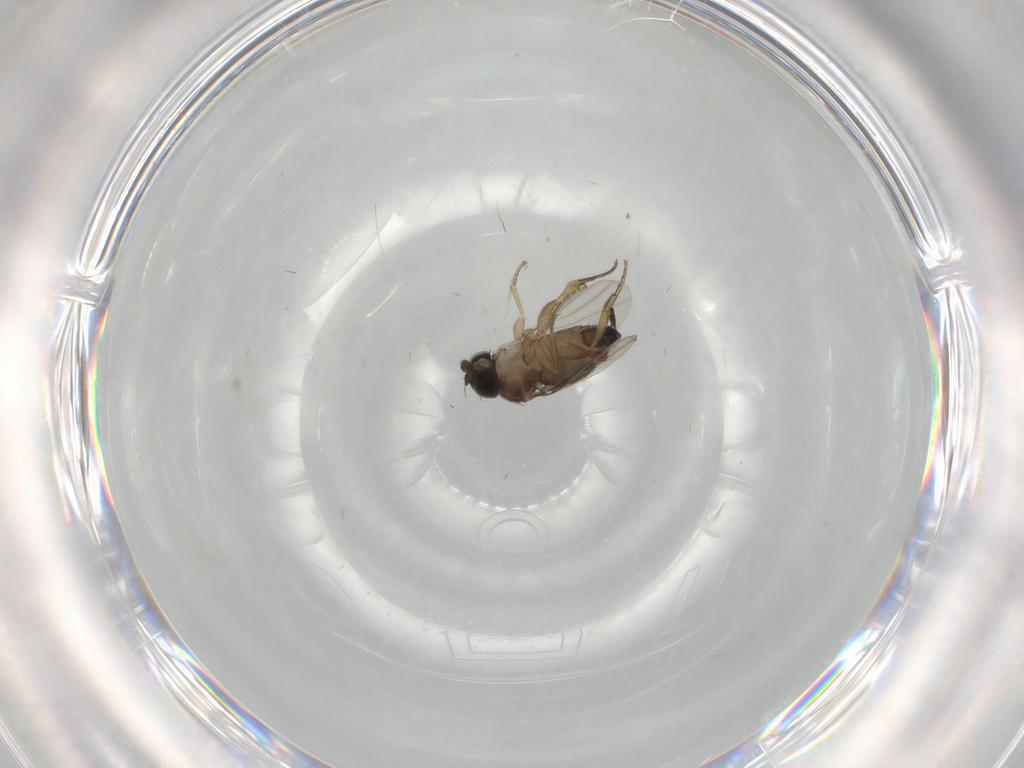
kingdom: Animalia
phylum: Arthropoda
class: Insecta
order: Diptera
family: Phoridae
